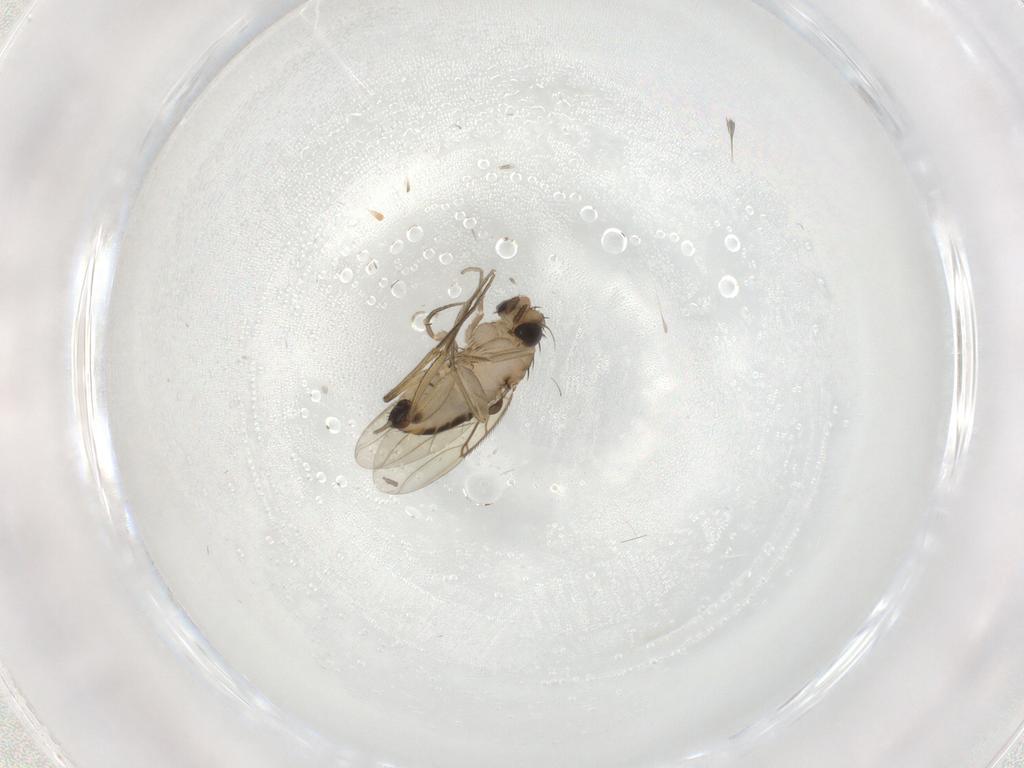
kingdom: Animalia
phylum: Arthropoda
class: Insecta
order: Diptera
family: Phoridae
